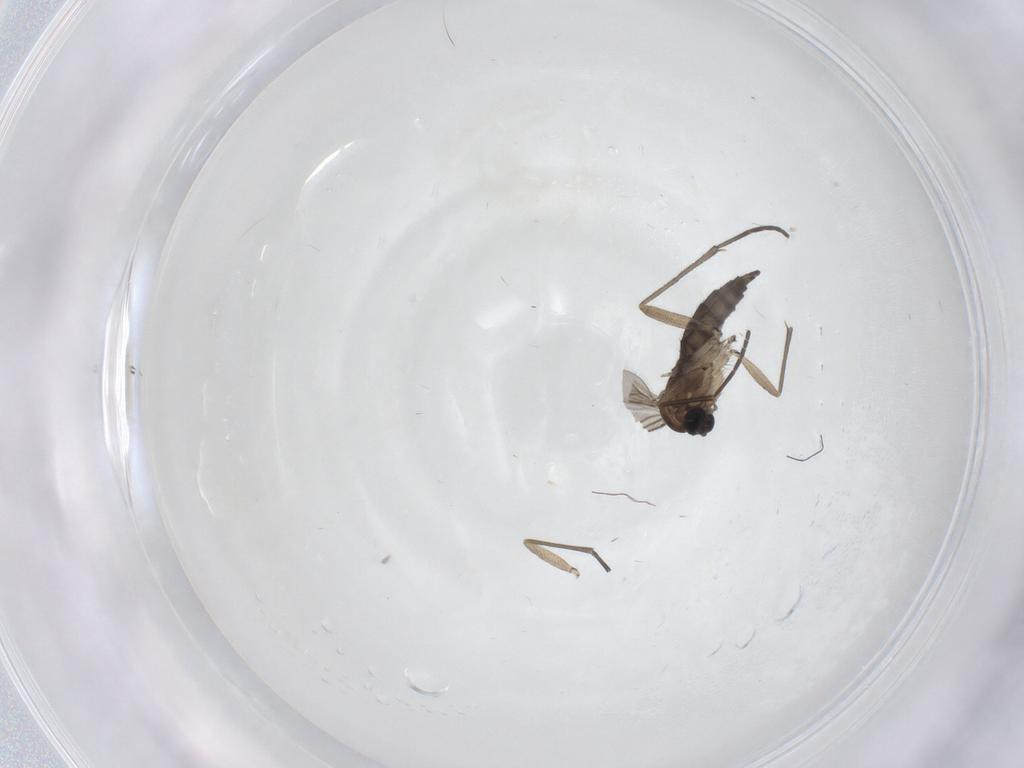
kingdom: Animalia
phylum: Arthropoda
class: Insecta
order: Diptera
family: Sciaridae
